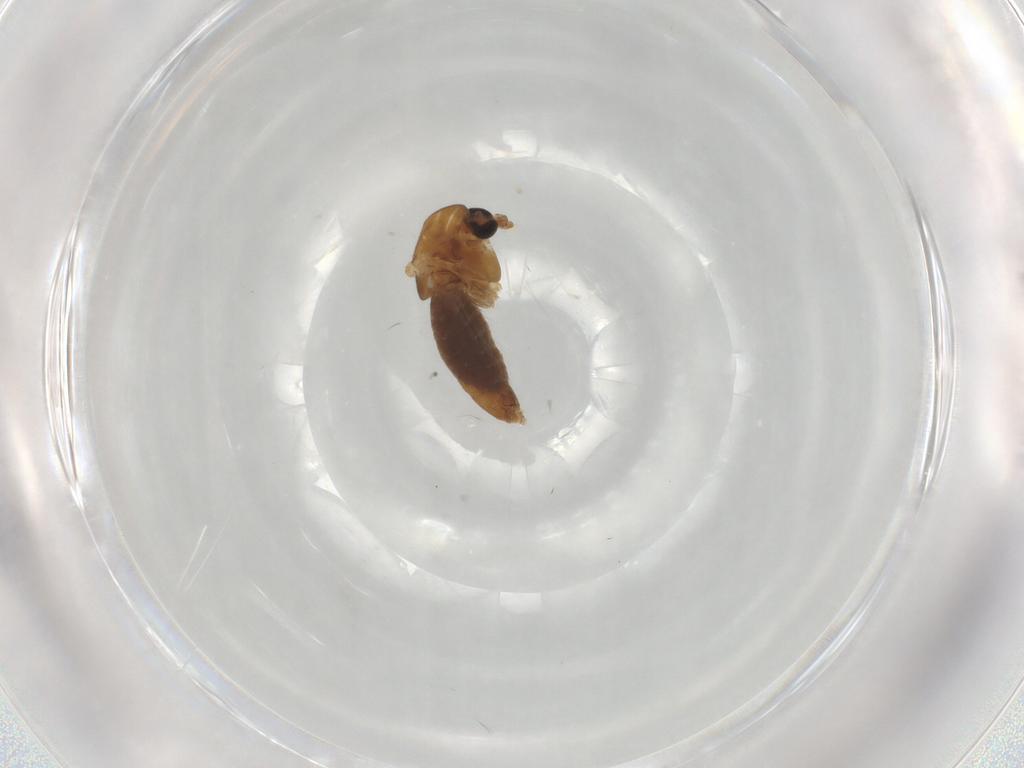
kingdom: Animalia
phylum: Arthropoda
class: Insecta
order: Diptera
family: Chironomidae
